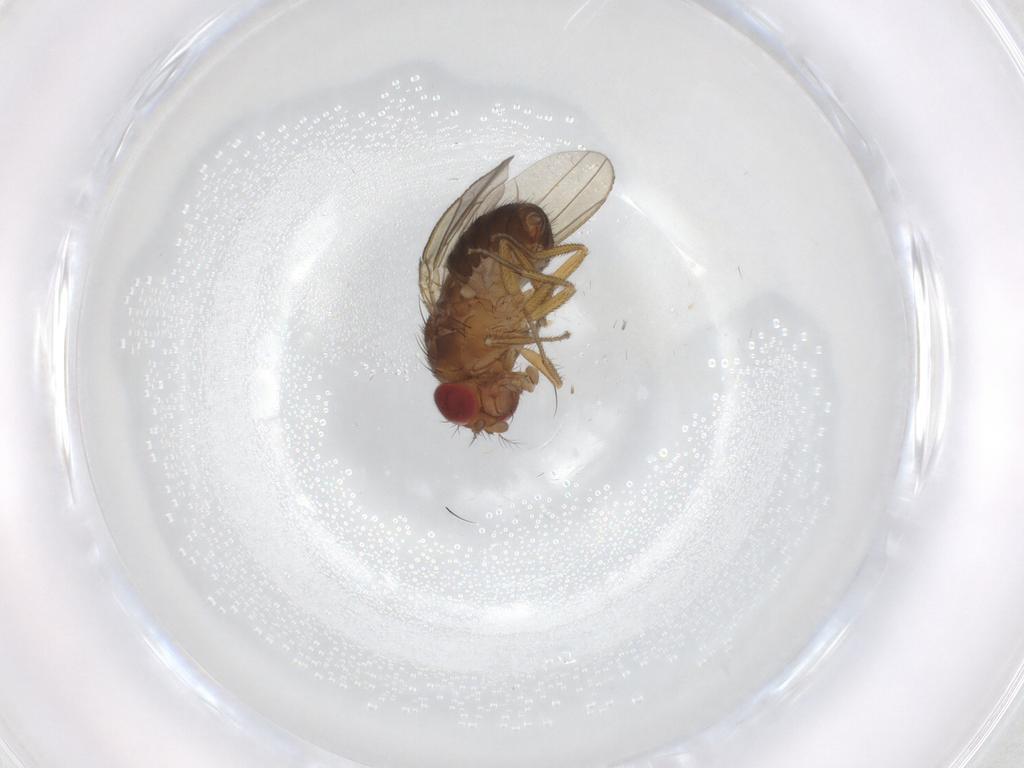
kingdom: Animalia
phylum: Arthropoda
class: Insecta
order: Diptera
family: Drosophilidae
